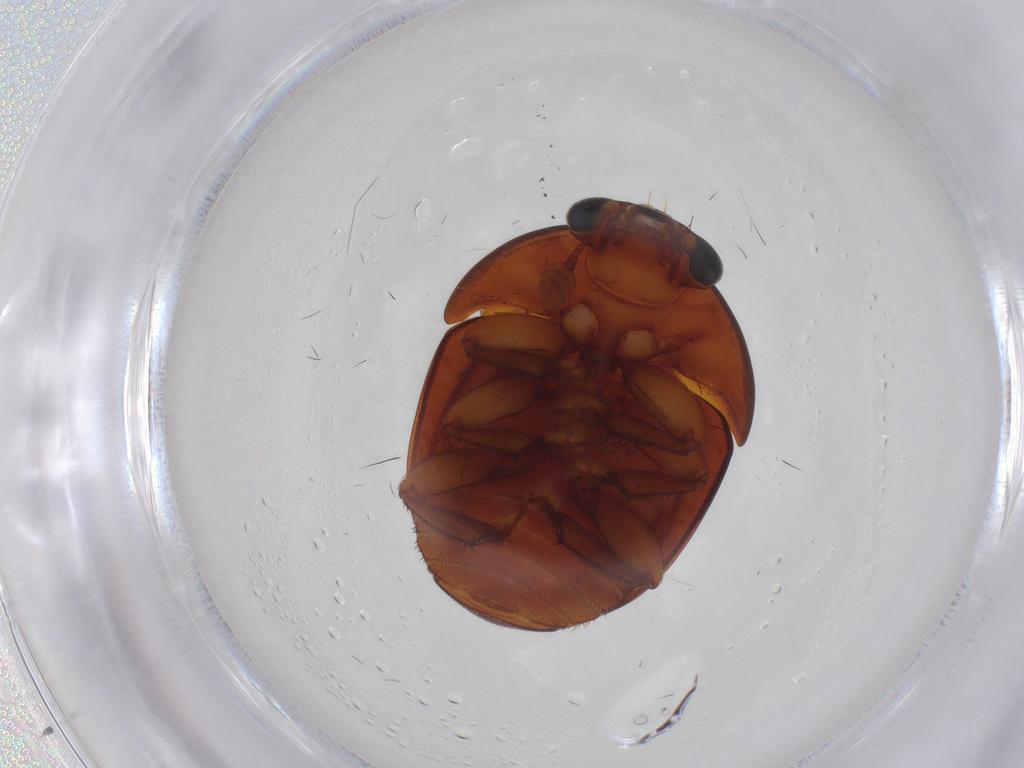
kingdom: Animalia
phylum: Arthropoda
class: Insecta
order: Coleoptera
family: Nitidulidae
